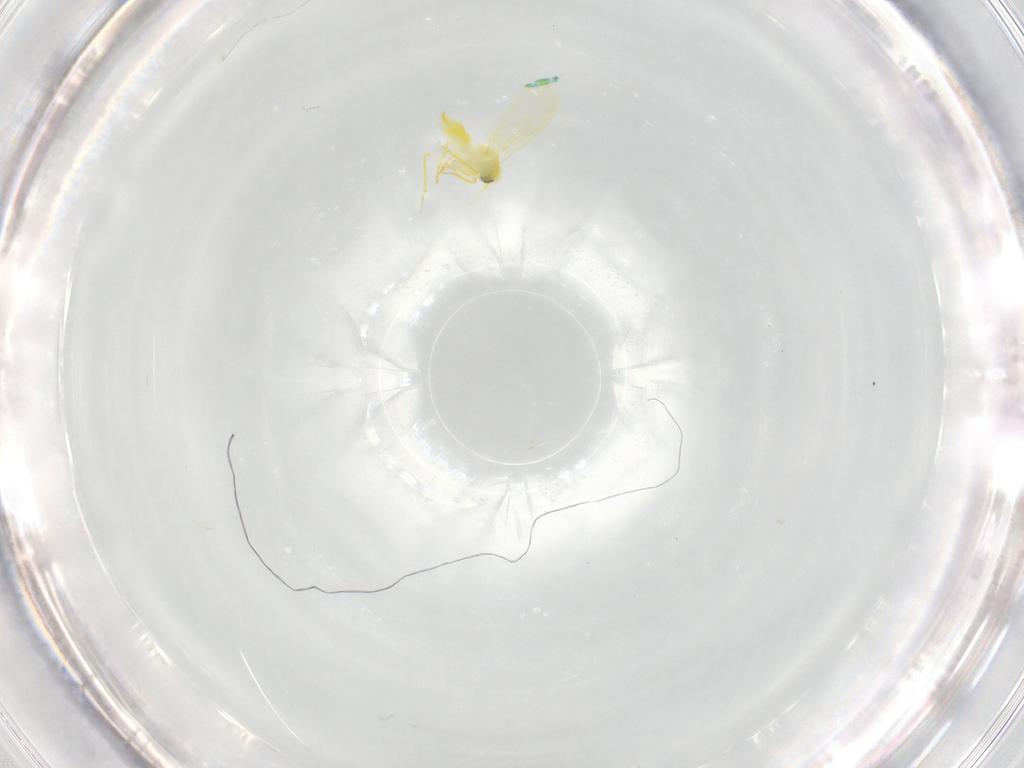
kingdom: Animalia
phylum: Arthropoda
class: Insecta
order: Hemiptera
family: Aleyrodidae
